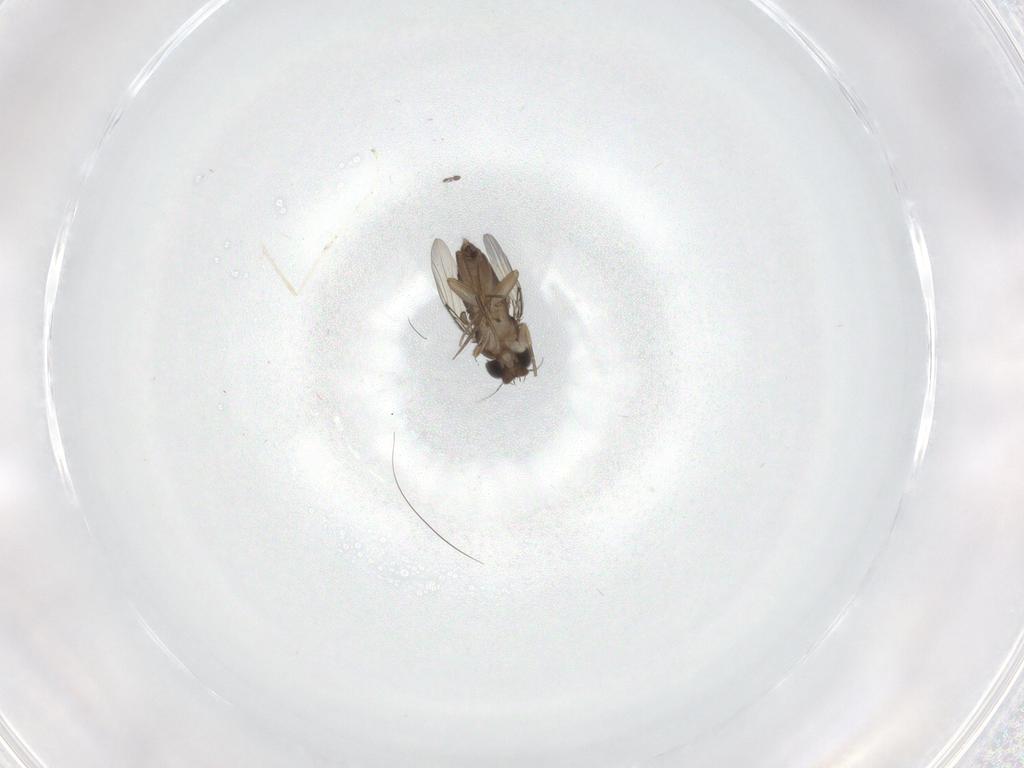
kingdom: Animalia
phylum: Arthropoda
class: Insecta
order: Diptera
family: Phoridae
